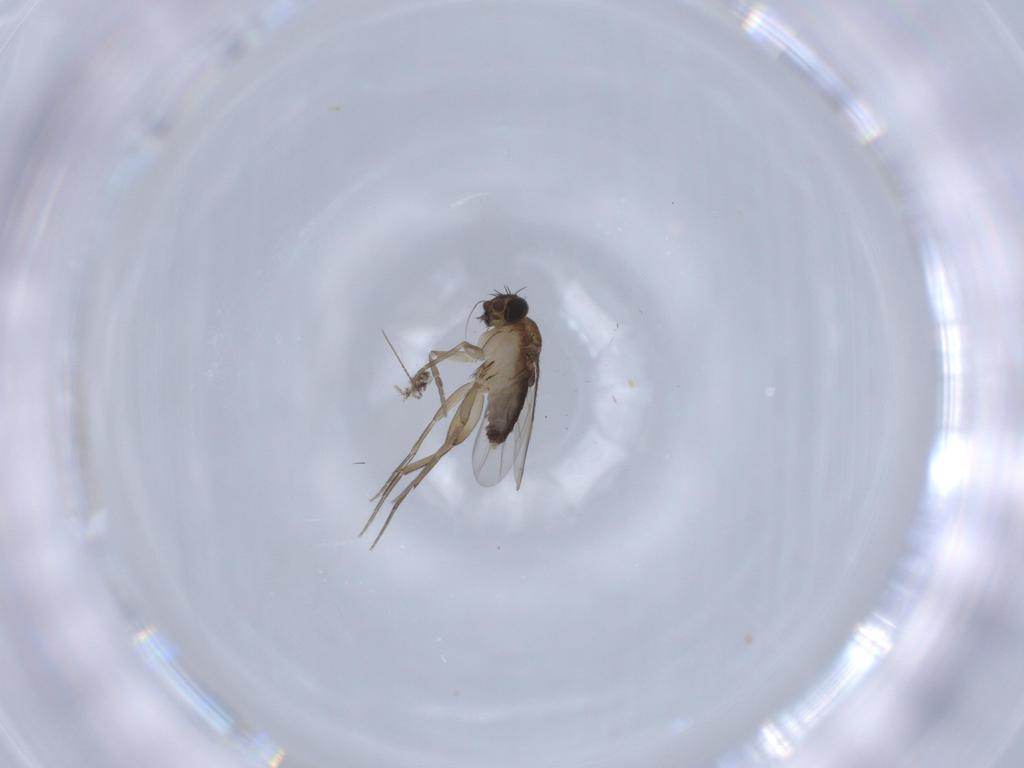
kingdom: Animalia
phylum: Arthropoda
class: Insecta
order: Diptera
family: Phoridae
